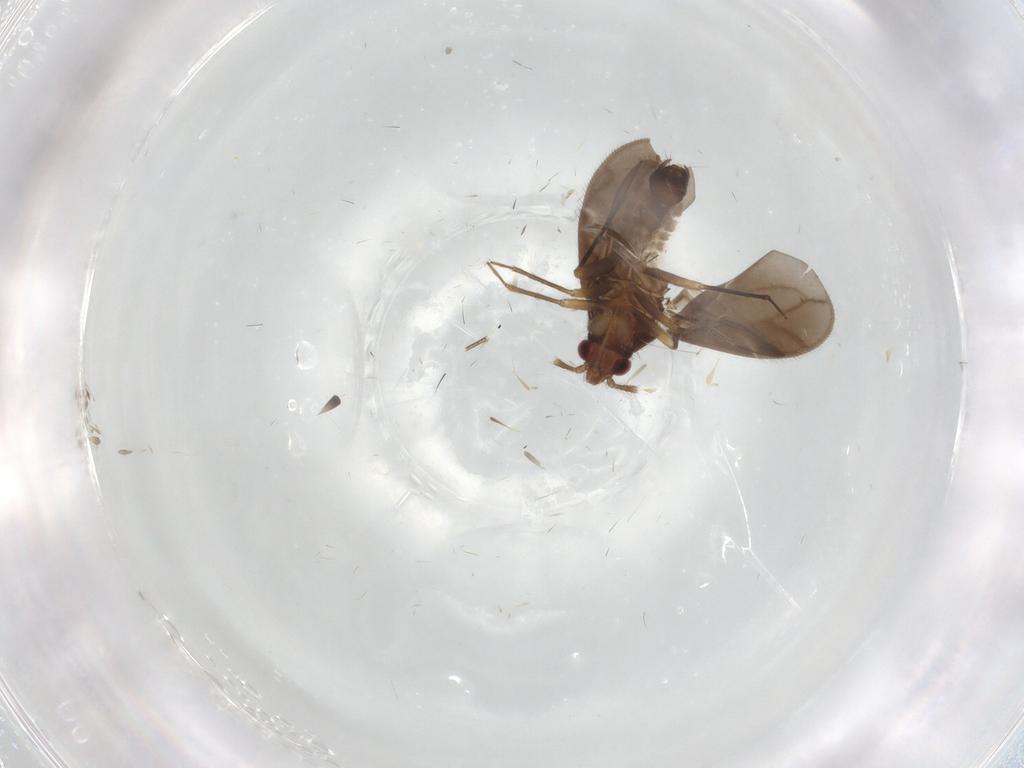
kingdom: Animalia
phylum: Arthropoda
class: Insecta
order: Hemiptera
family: Ceratocombidae
